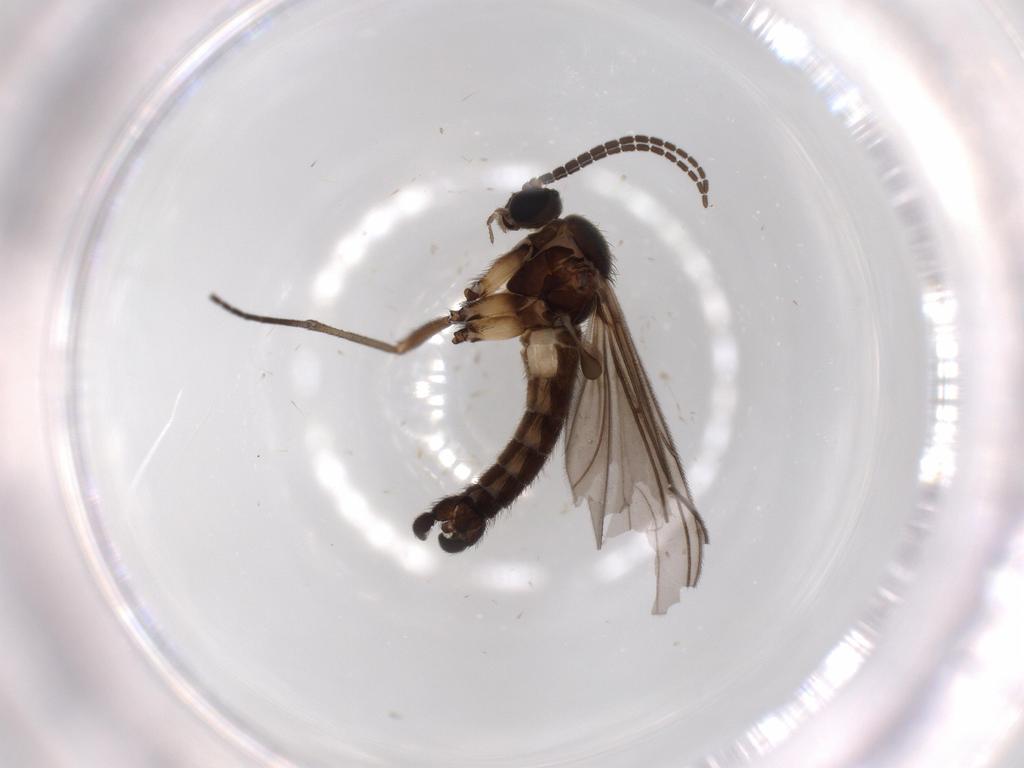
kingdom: Animalia
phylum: Arthropoda
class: Insecta
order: Diptera
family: Sciaridae
